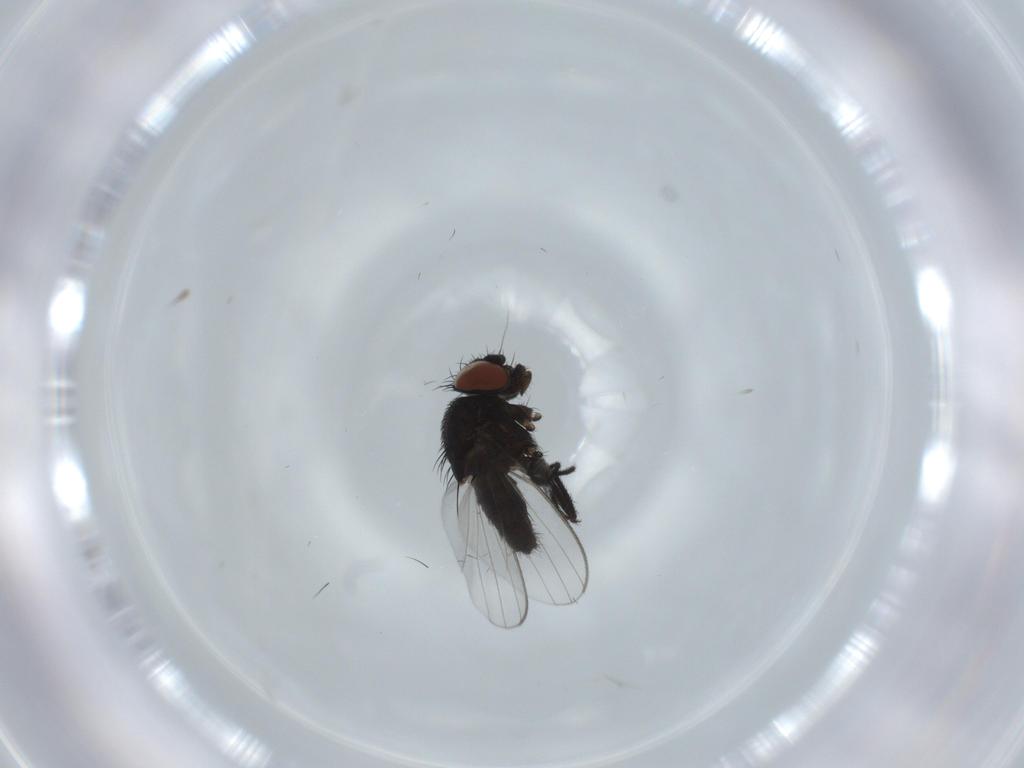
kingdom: Animalia
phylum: Arthropoda
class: Insecta
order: Diptera
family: Cecidomyiidae
